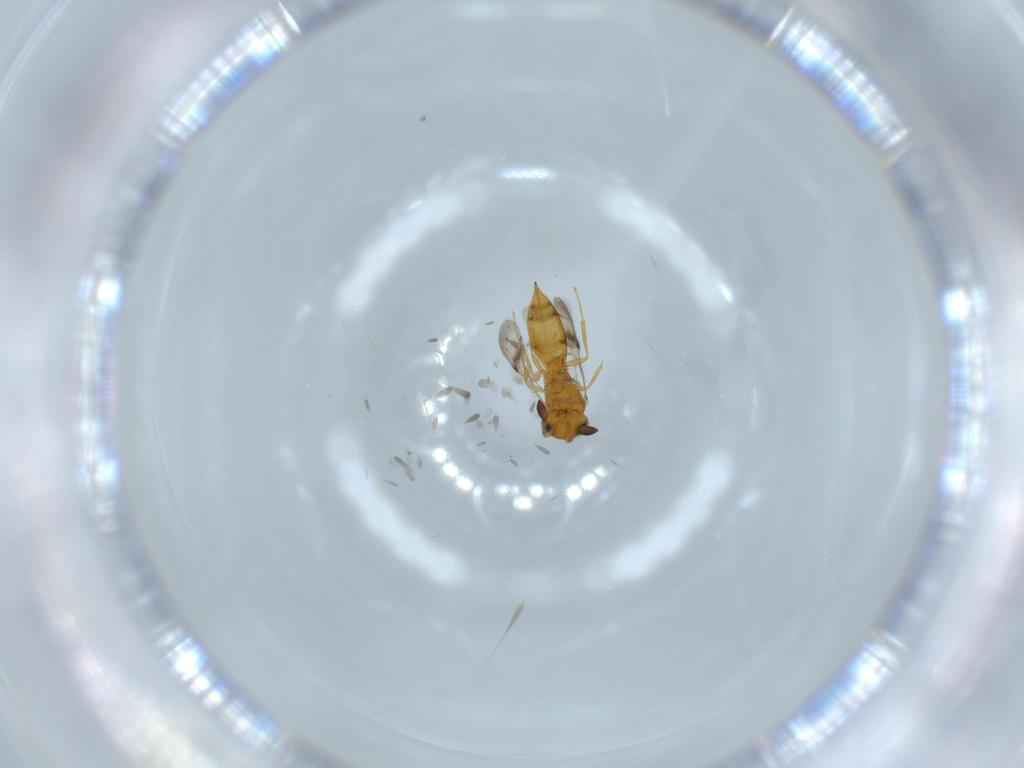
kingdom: Animalia
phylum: Arthropoda
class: Insecta
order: Hymenoptera
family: Scelionidae
